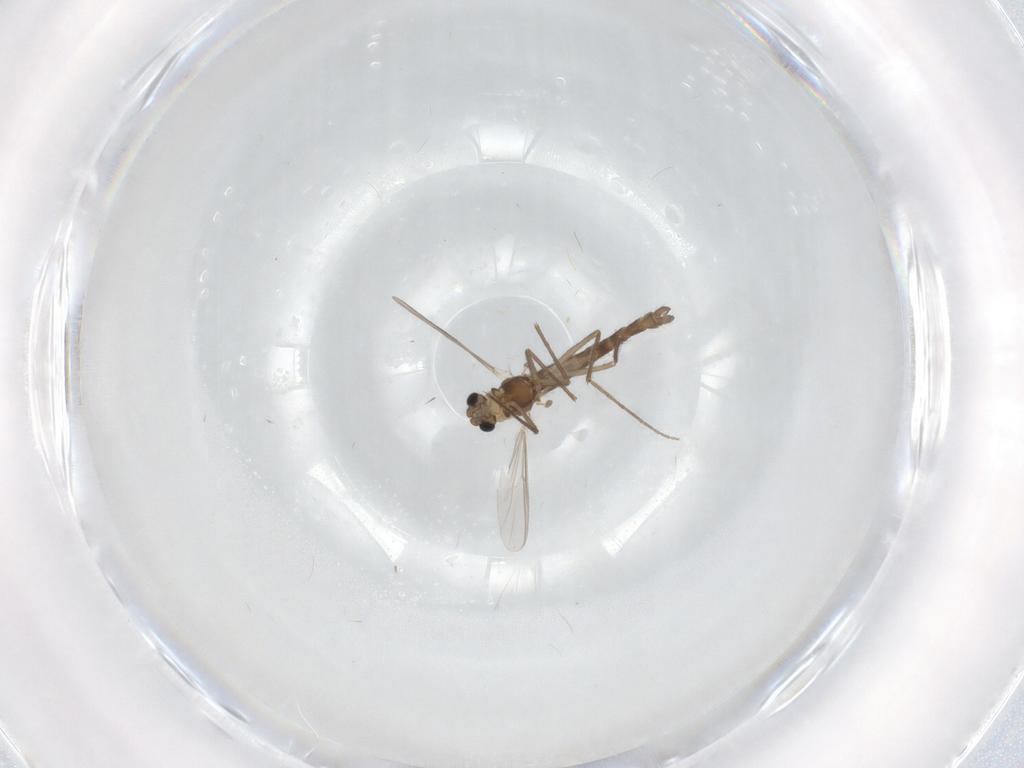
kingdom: Animalia
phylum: Arthropoda
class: Insecta
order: Diptera
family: Chironomidae
